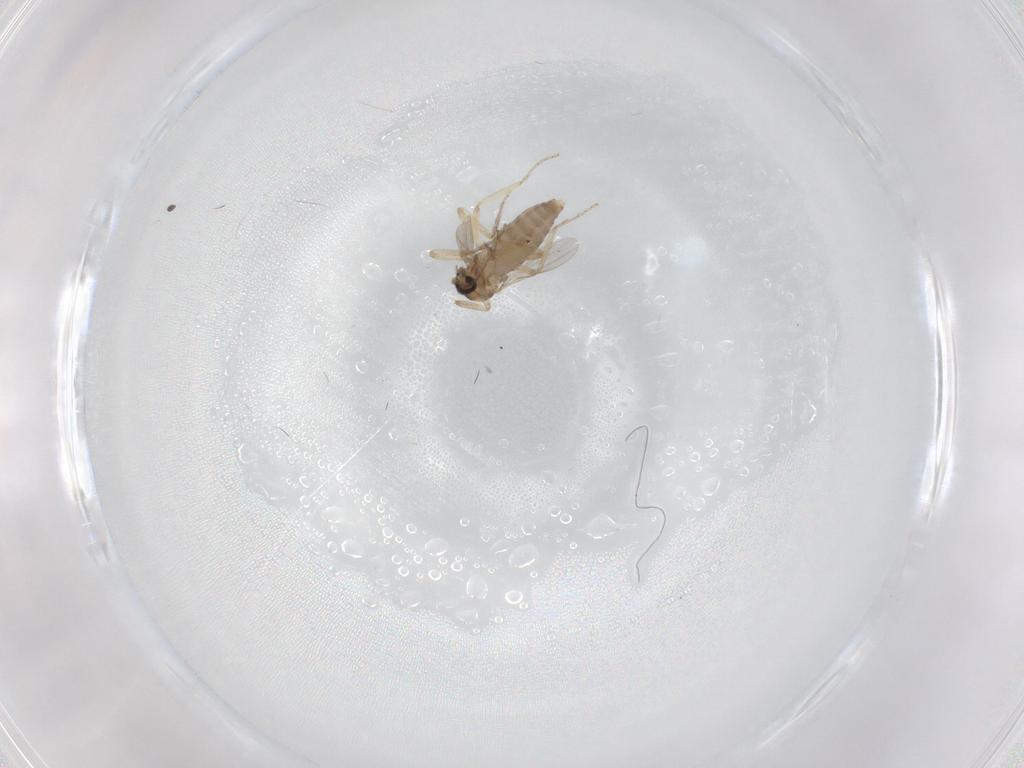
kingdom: Animalia
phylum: Arthropoda
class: Insecta
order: Diptera
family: Ceratopogonidae
